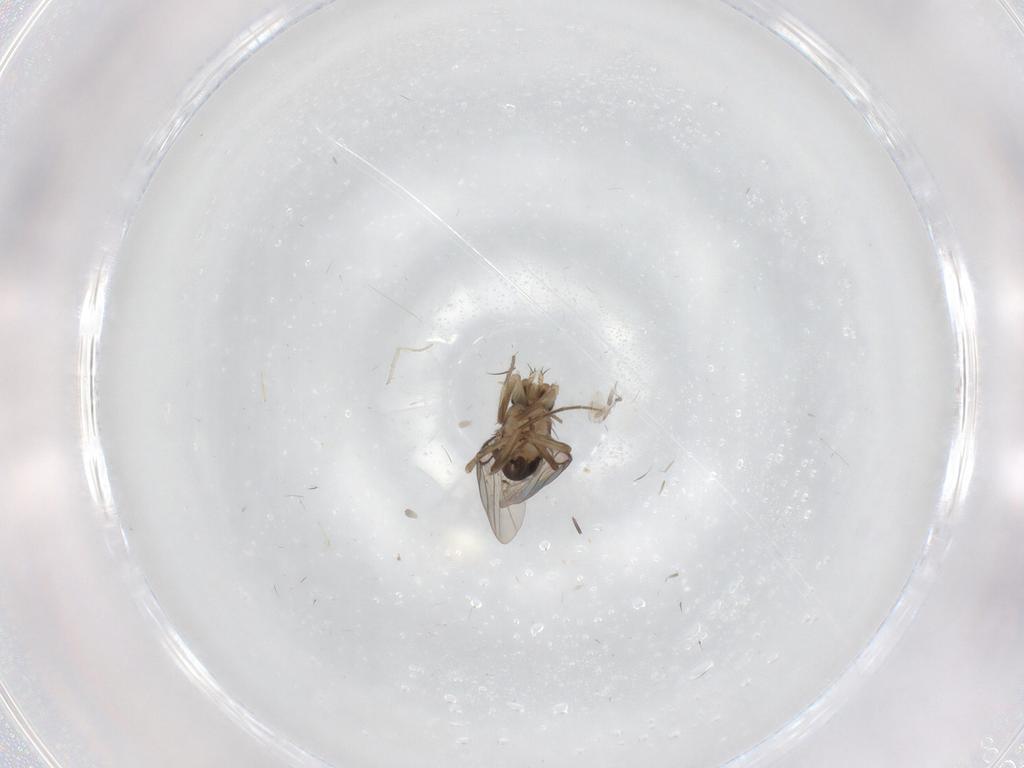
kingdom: Animalia
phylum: Arthropoda
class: Insecta
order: Diptera
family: Phoridae
